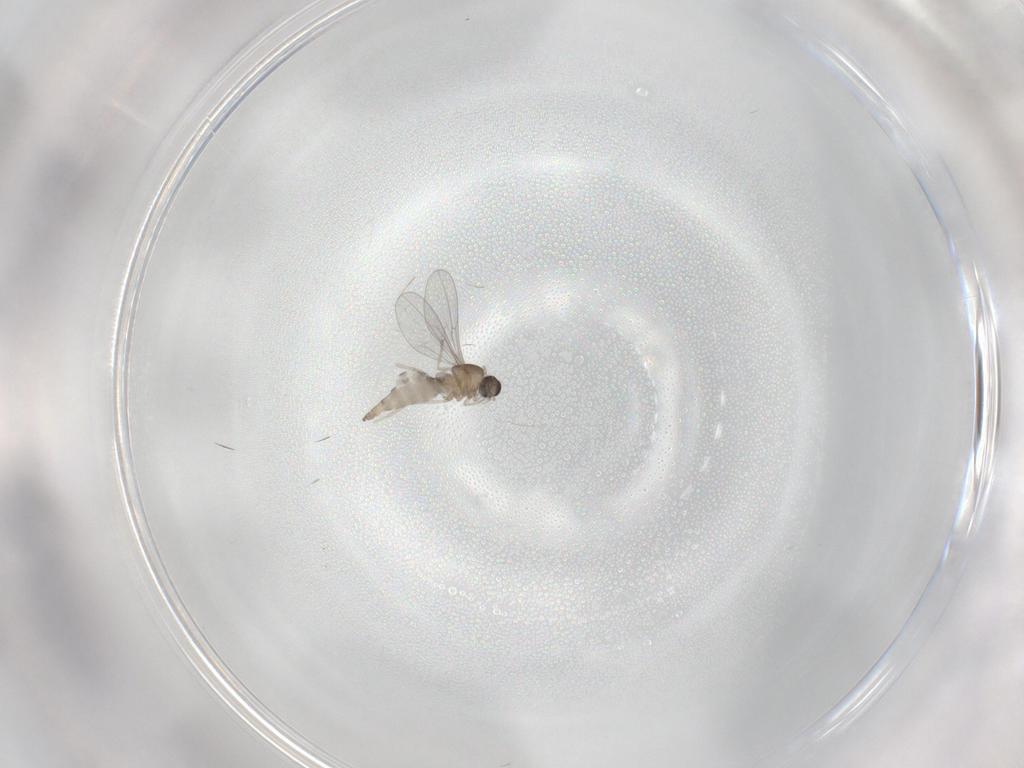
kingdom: Animalia
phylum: Arthropoda
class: Insecta
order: Diptera
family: Cecidomyiidae
